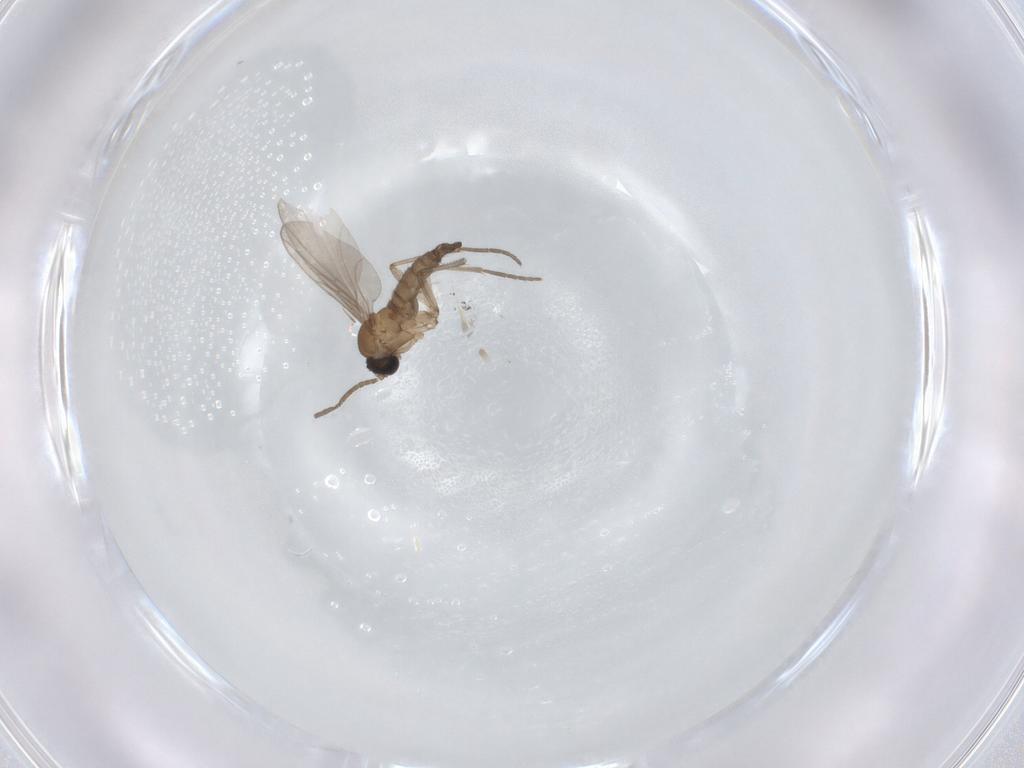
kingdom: Animalia
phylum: Arthropoda
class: Insecta
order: Diptera
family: Sciaridae
